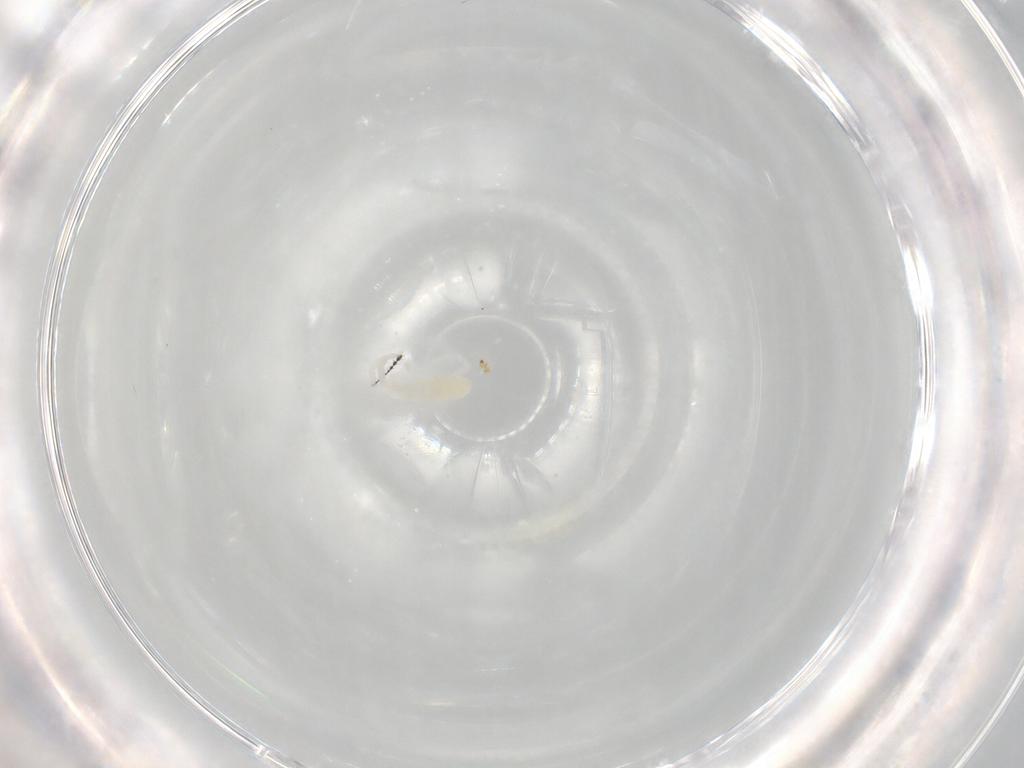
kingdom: Animalia
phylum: Arthropoda
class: Arachnida
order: Trombidiformes
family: Rhagidiidae
